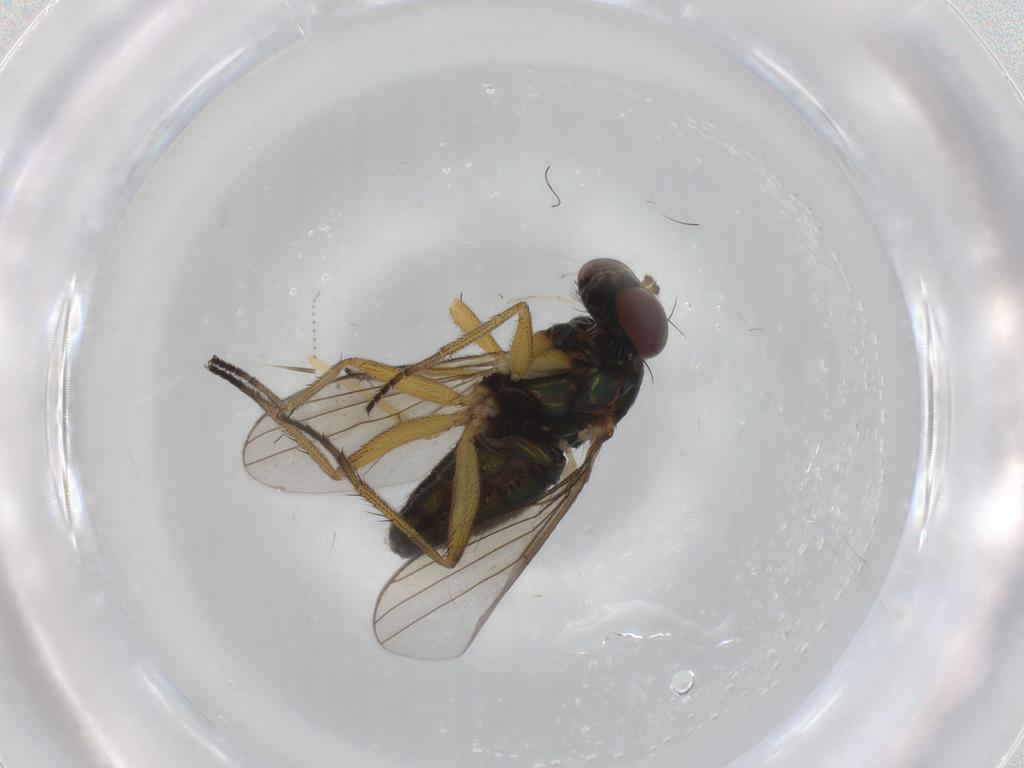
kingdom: Animalia
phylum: Arthropoda
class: Insecta
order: Diptera
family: Dolichopodidae
